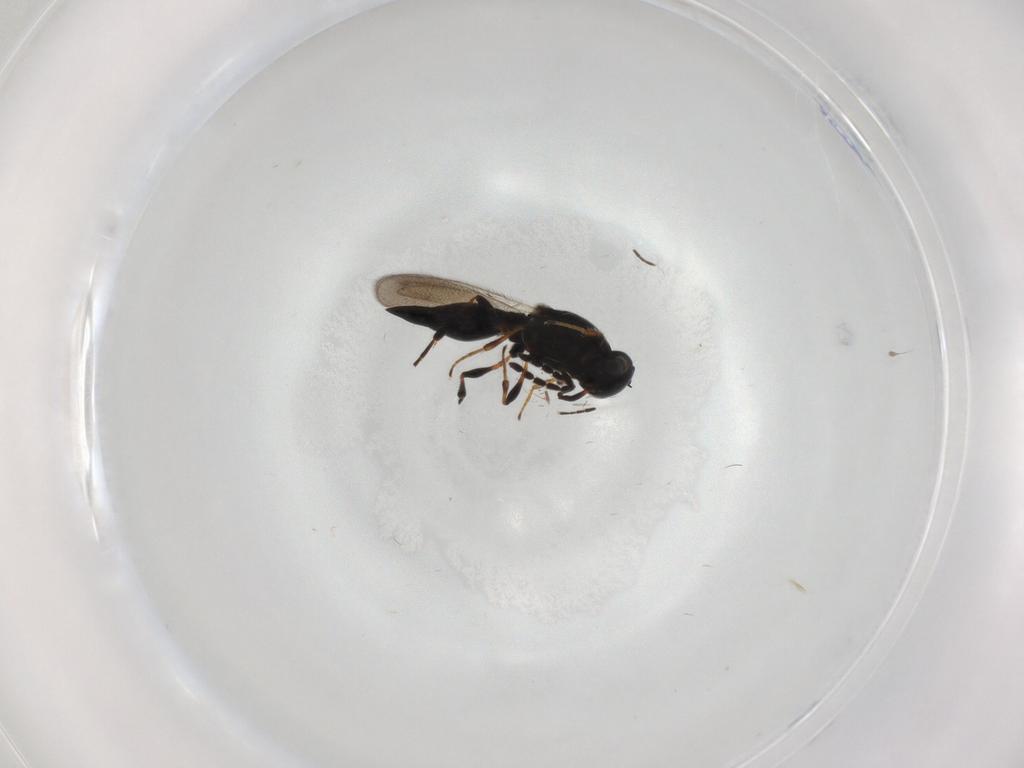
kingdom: Animalia
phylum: Arthropoda
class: Insecta
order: Hymenoptera
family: Platygastridae
